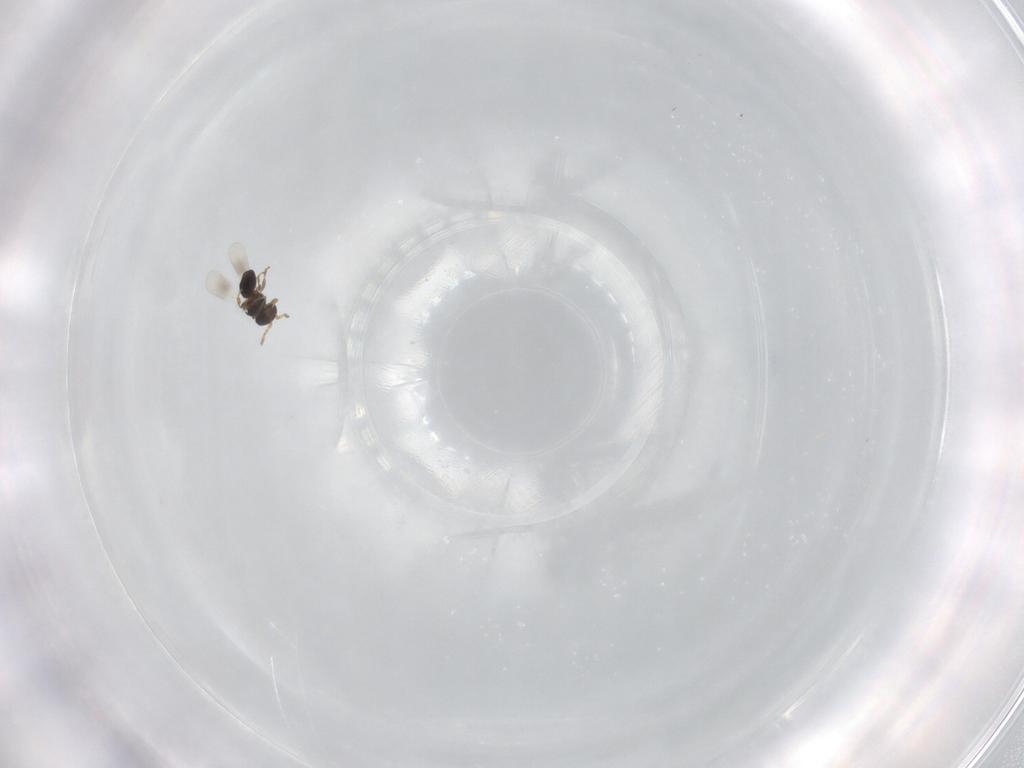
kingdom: Animalia
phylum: Arthropoda
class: Insecta
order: Hymenoptera
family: Platygastridae
